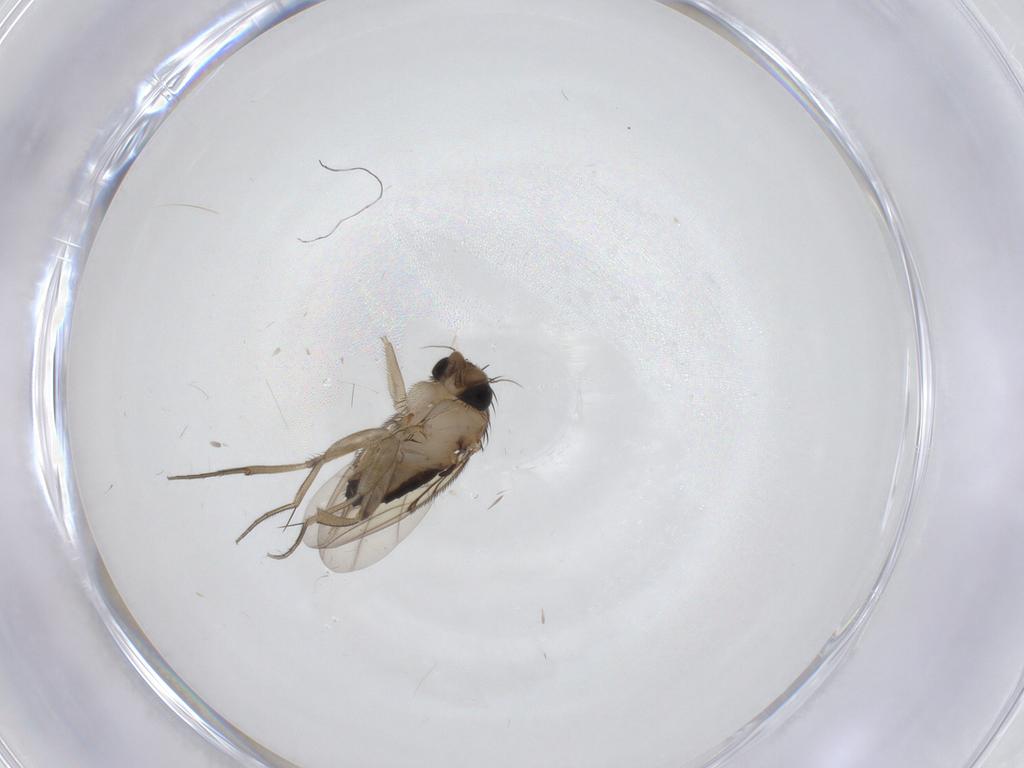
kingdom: Animalia
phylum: Arthropoda
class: Insecta
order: Diptera
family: Phoridae
